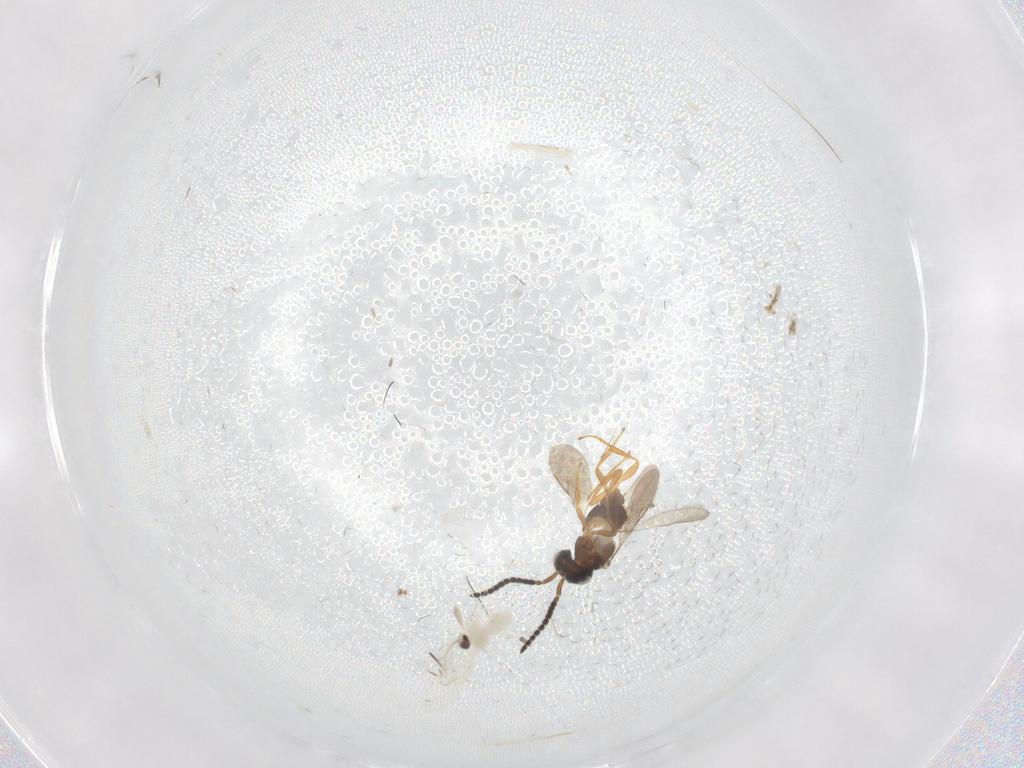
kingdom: Animalia
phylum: Arthropoda
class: Insecta
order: Diptera
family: Cecidomyiidae
